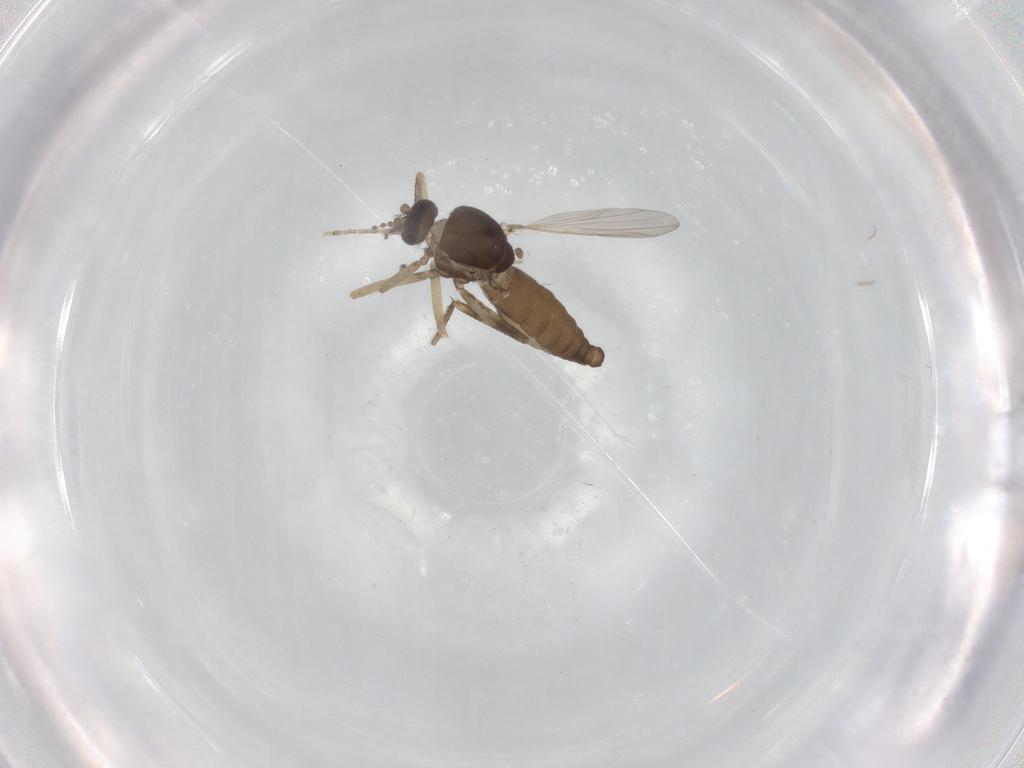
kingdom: Animalia
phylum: Arthropoda
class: Insecta
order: Diptera
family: Ceratopogonidae
